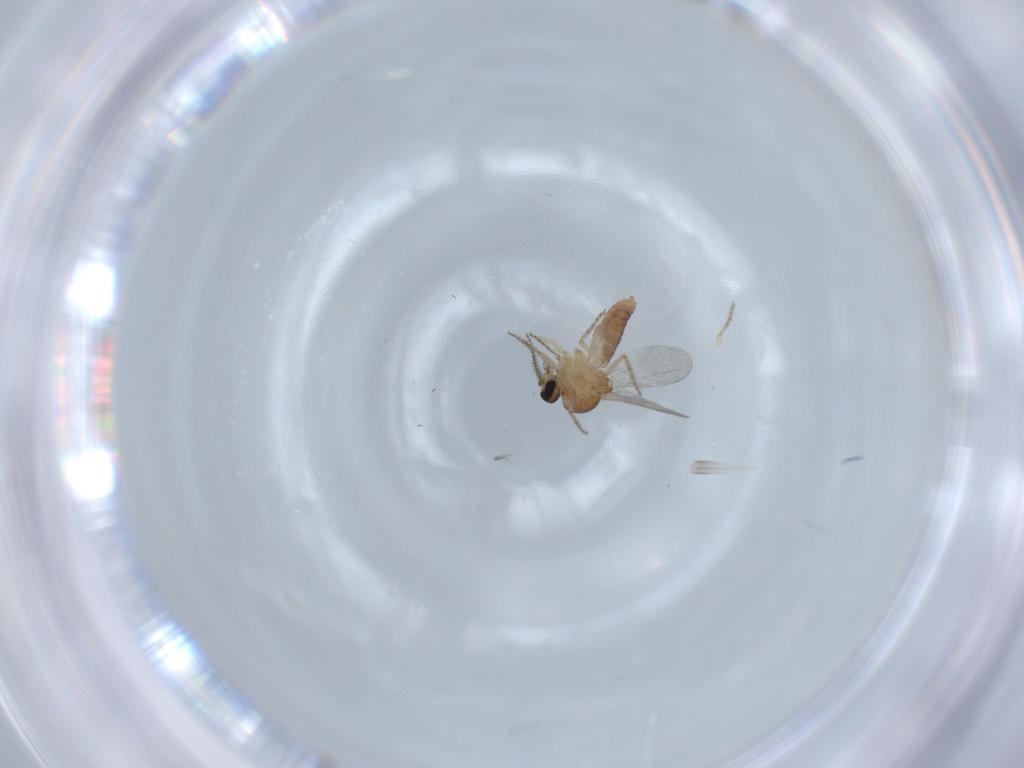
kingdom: Animalia
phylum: Arthropoda
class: Insecta
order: Diptera
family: Ceratopogonidae
